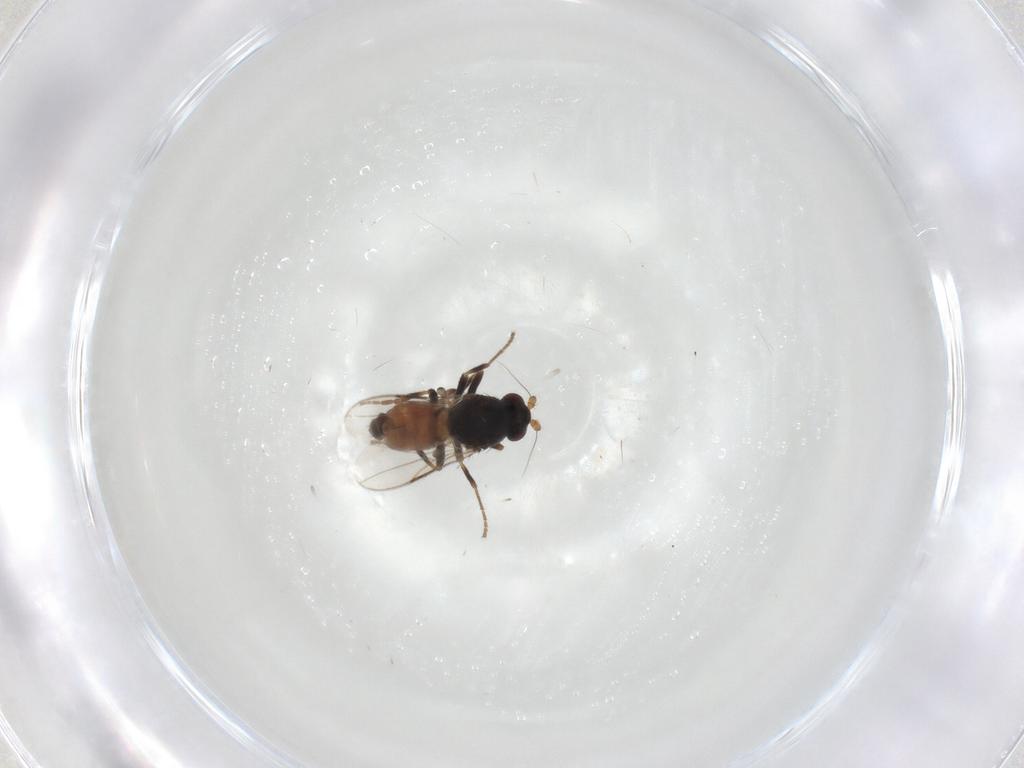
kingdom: Animalia
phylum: Arthropoda
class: Insecta
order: Diptera
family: Sphaeroceridae
